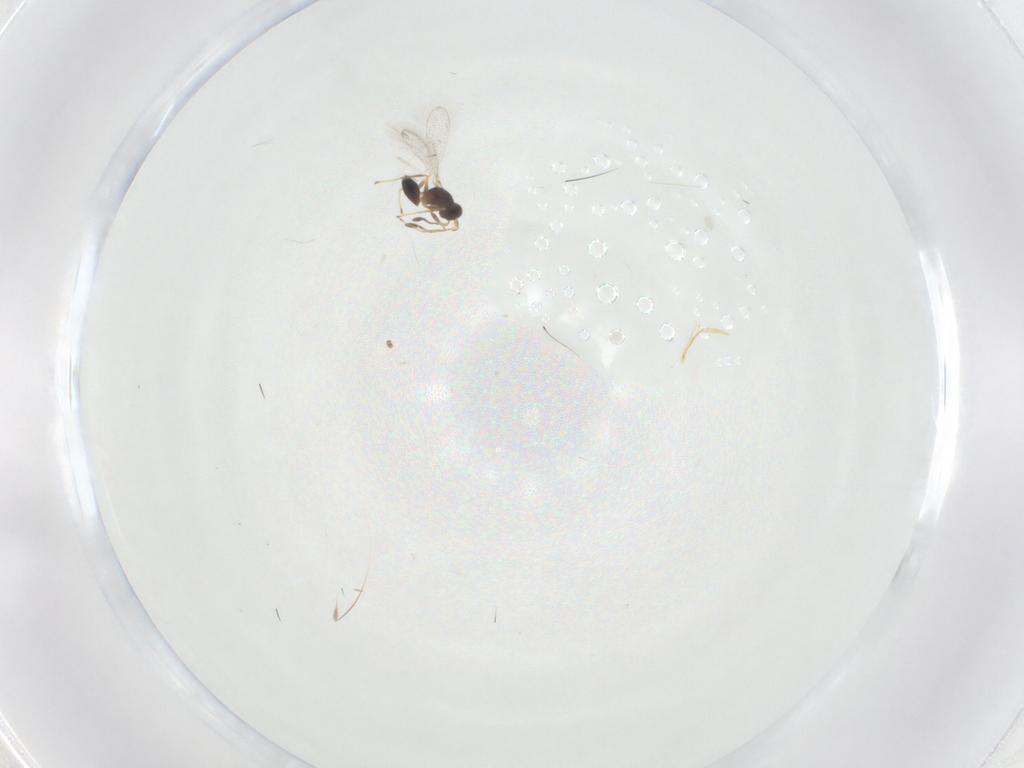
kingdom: Animalia
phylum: Arthropoda
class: Insecta
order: Hymenoptera
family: Mymaridae
